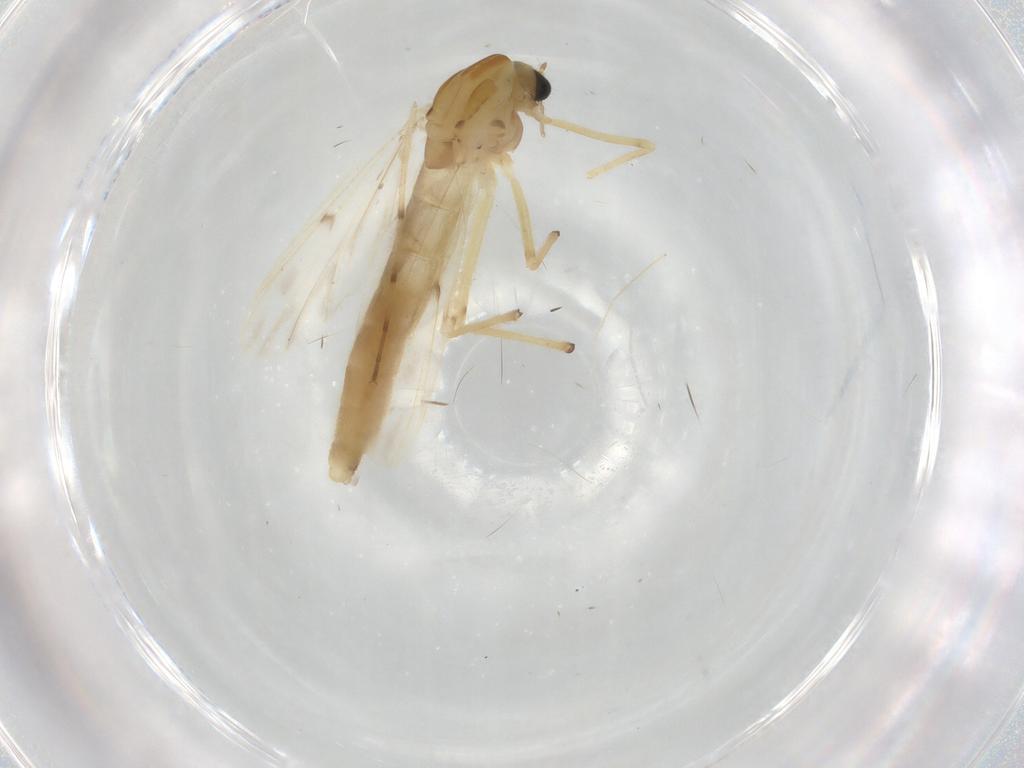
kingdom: Animalia
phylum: Arthropoda
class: Insecta
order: Diptera
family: Chironomidae
